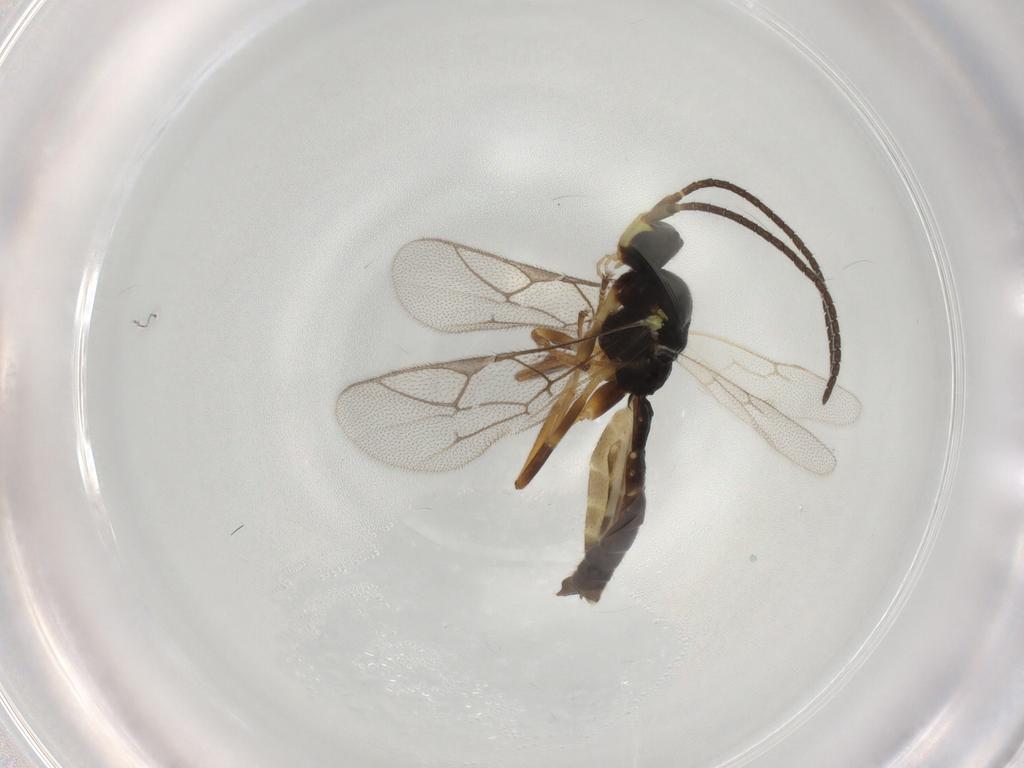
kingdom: Animalia
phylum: Arthropoda
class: Insecta
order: Hymenoptera
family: Ichneumonidae
